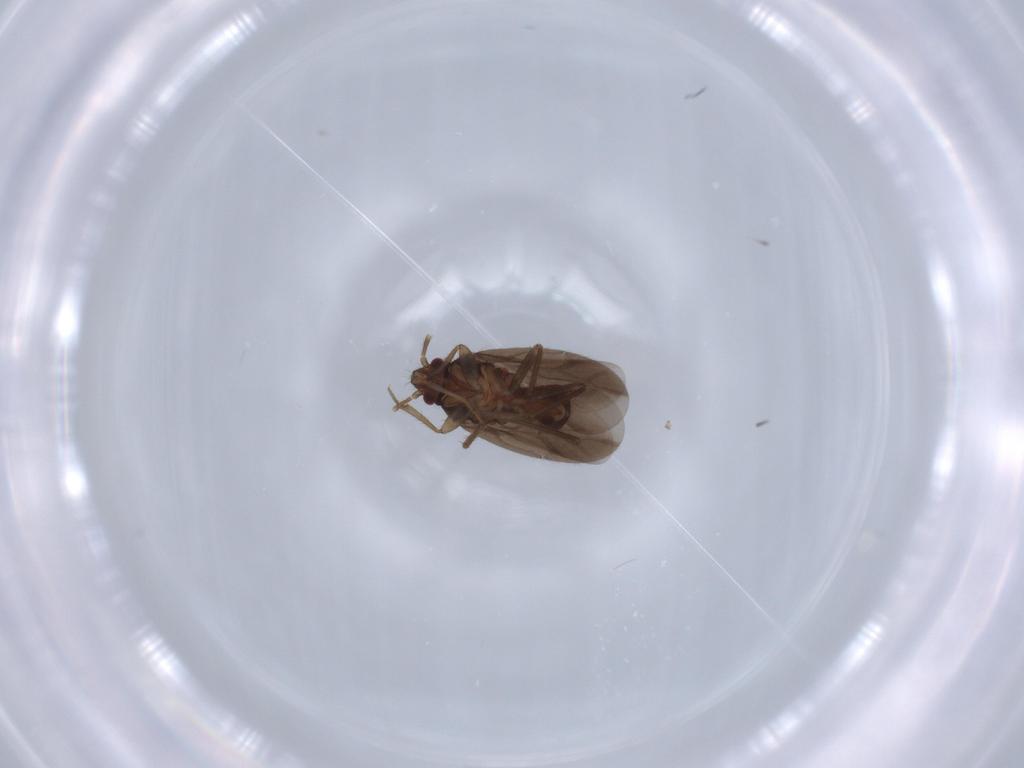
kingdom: Animalia
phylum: Arthropoda
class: Insecta
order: Hemiptera
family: Ceratocombidae
